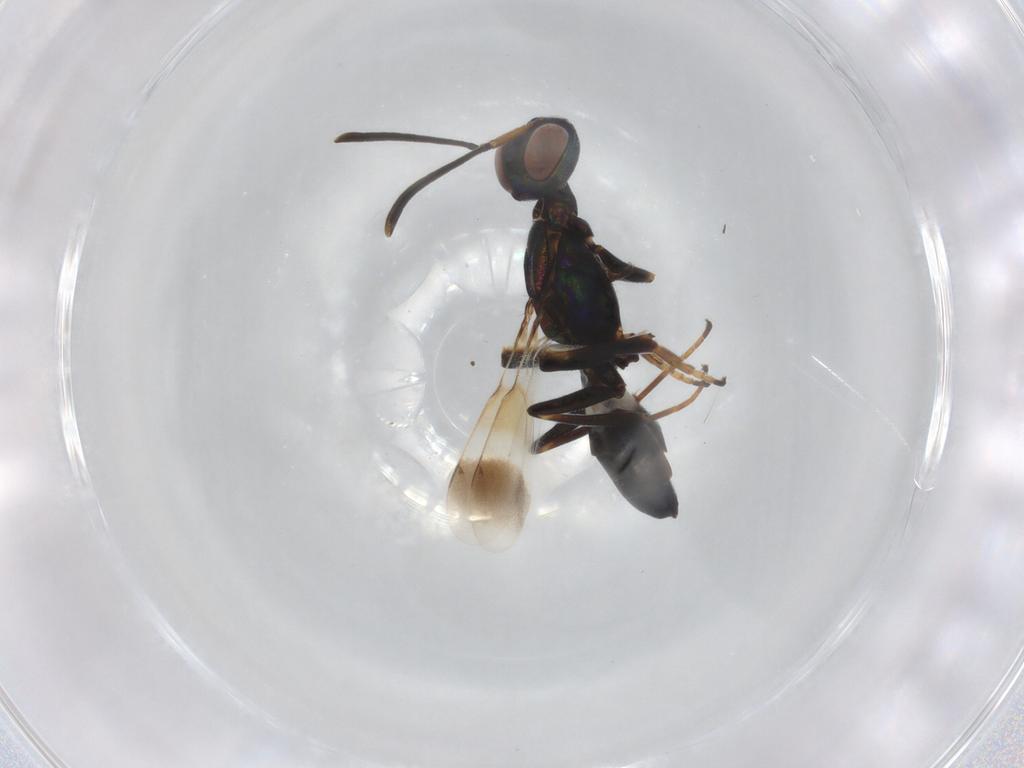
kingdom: Animalia
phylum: Arthropoda
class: Insecta
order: Hymenoptera
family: Eupelmidae
